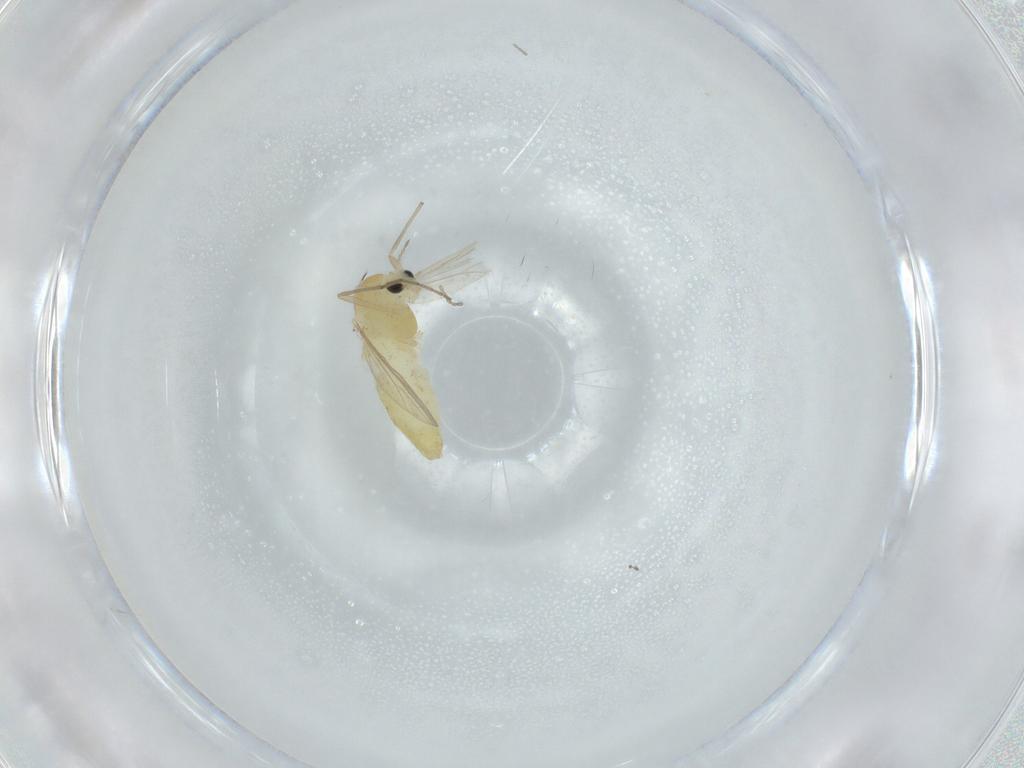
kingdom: Animalia
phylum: Arthropoda
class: Insecta
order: Diptera
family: Chironomidae
